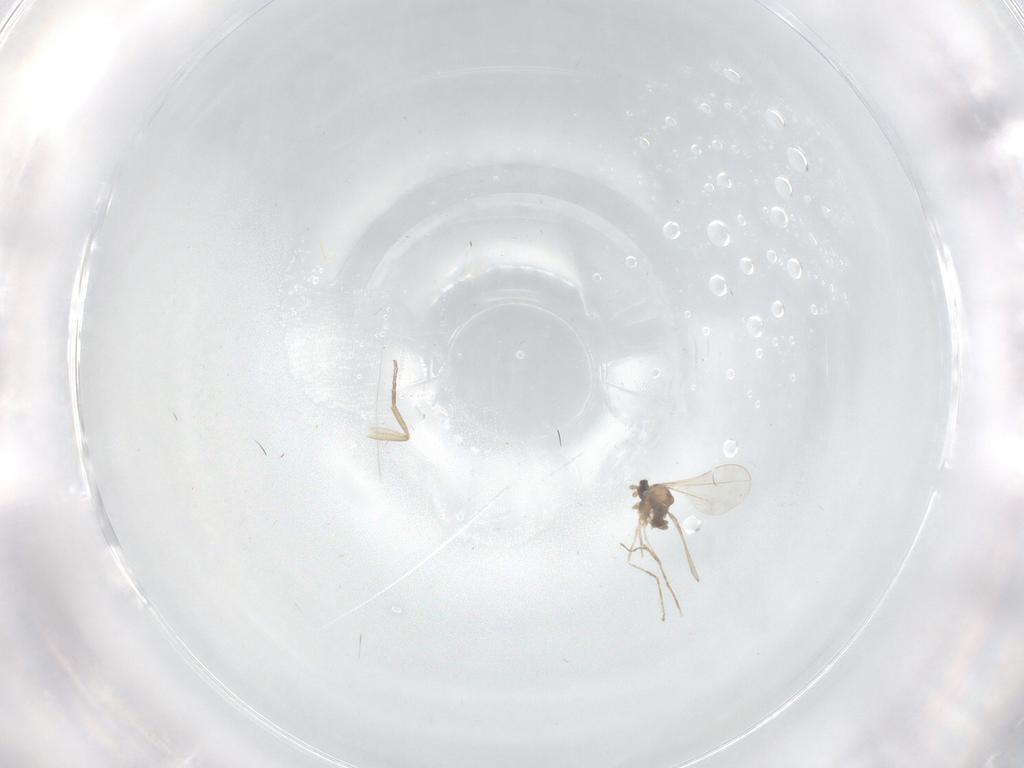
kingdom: Animalia
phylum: Arthropoda
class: Insecta
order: Diptera
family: Cecidomyiidae
